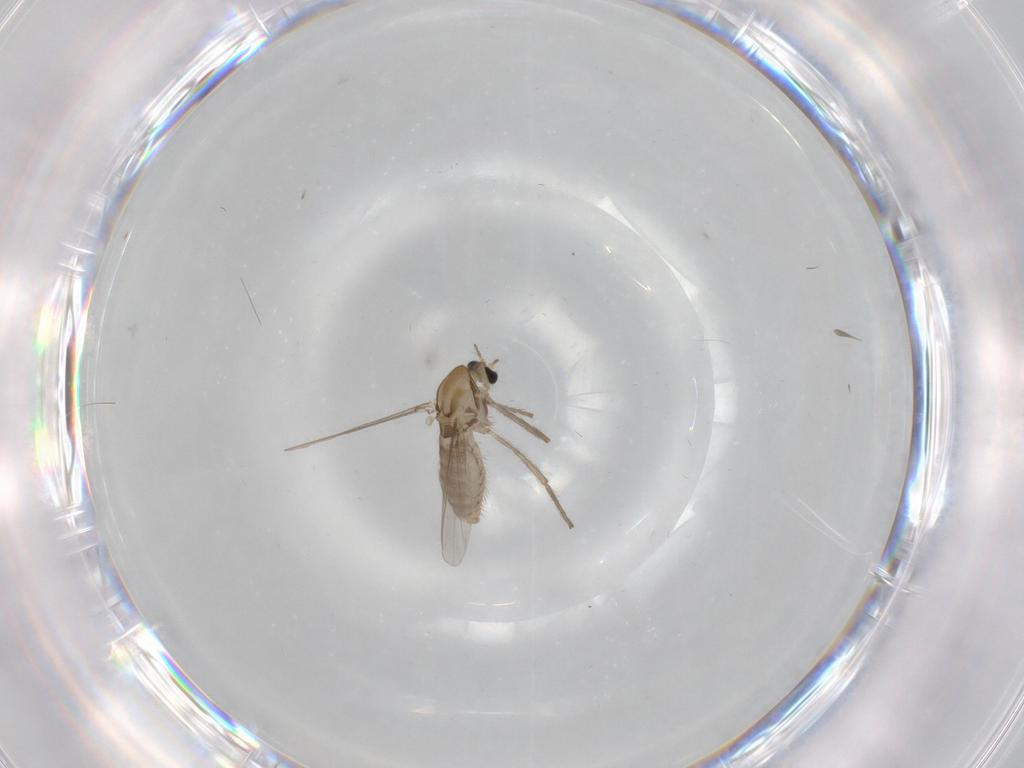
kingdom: Animalia
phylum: Arthropoda
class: Insecta
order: Diptera
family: Chironomidae
